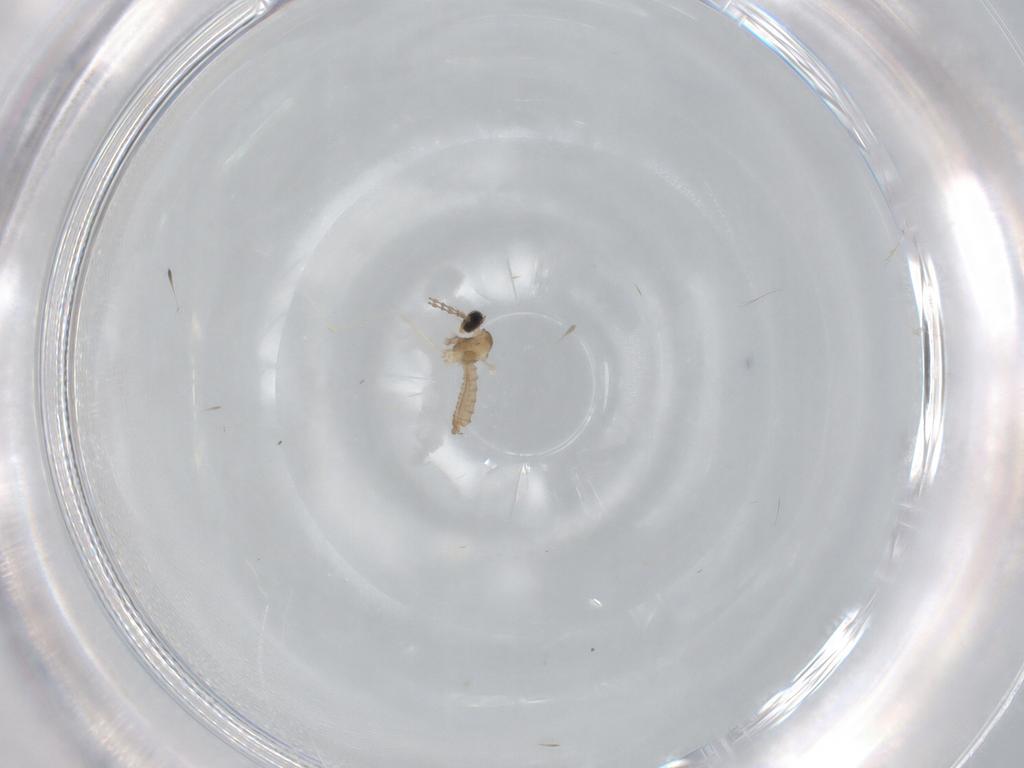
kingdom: Animalia
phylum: Arthropoda
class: Insecta
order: Diptera
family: Cecidomyiidae
